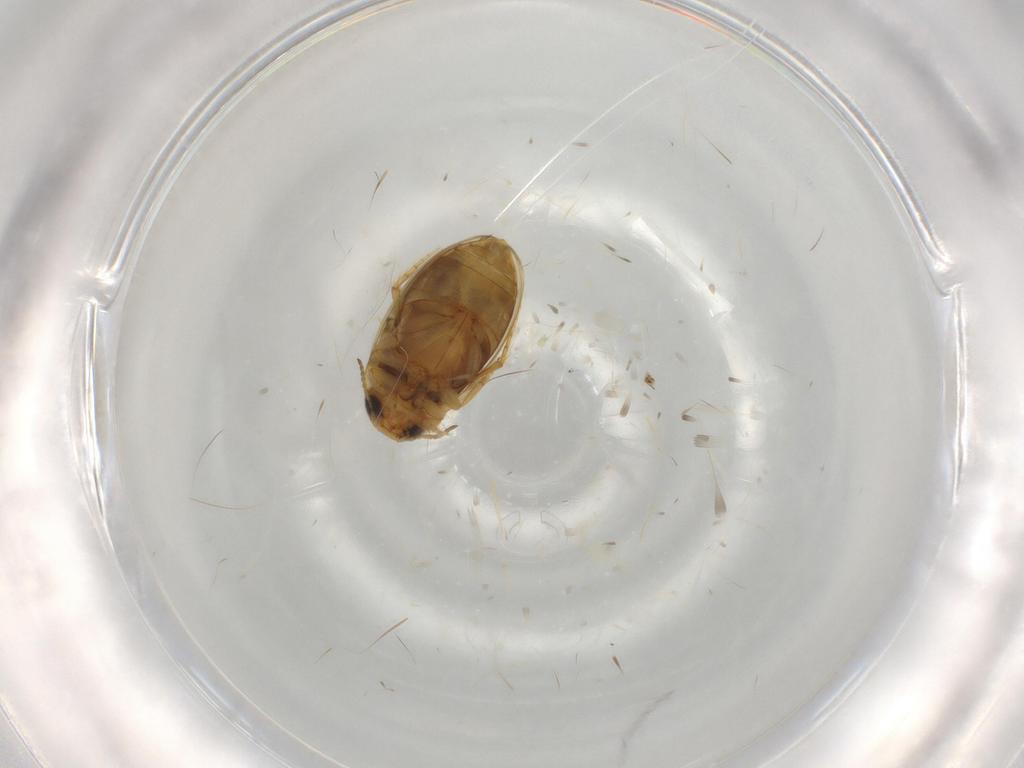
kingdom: Animalia
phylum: Arthropoda
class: Insecta
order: Coleoptera
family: Dytiscidae
